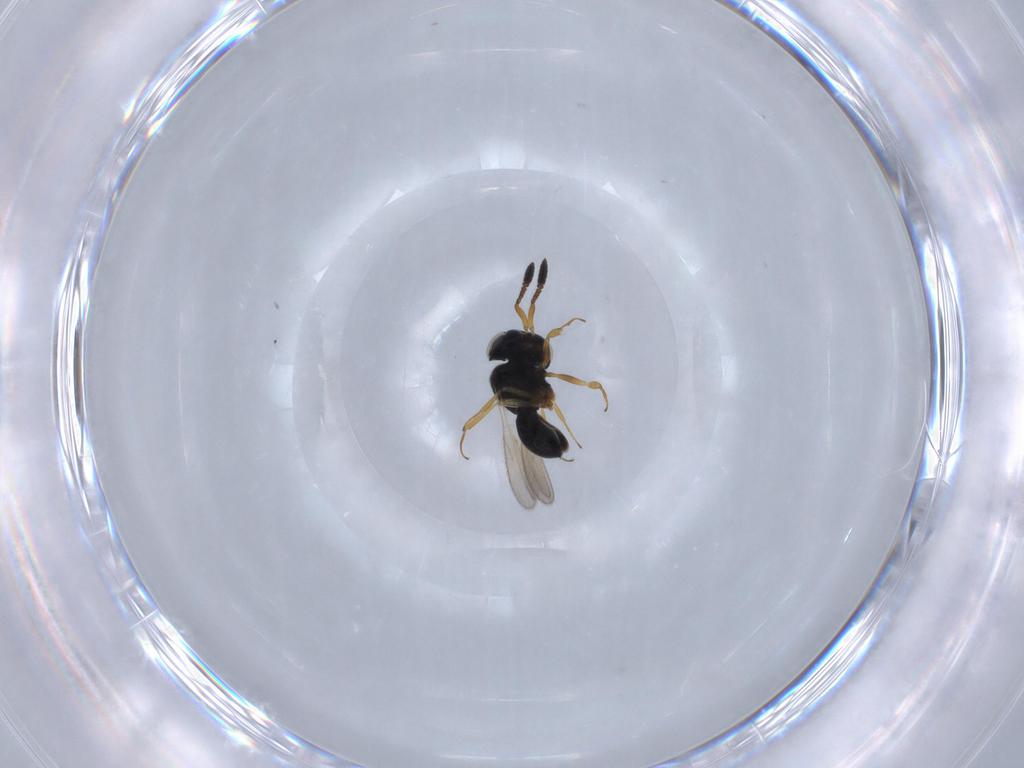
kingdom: Animalia
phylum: Arthropoda
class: Insecta
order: Hymenoptera
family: Scelionidae
